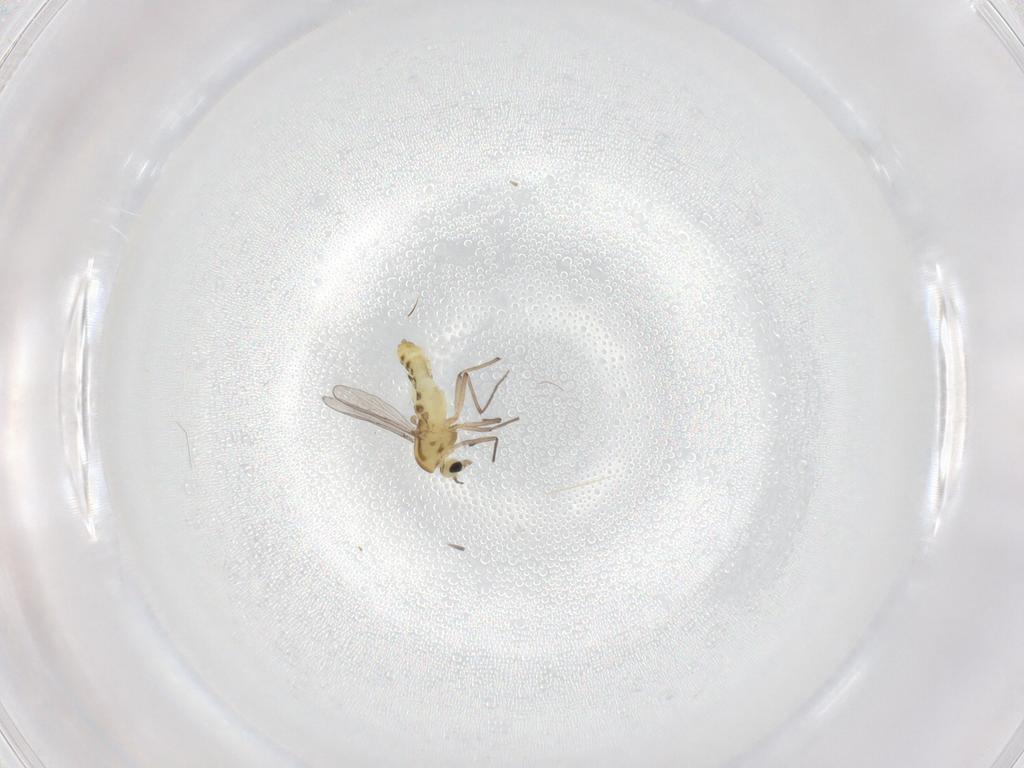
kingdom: Animalia
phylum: Arthropoda
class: Insecta
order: Diptera
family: Chironomidae
